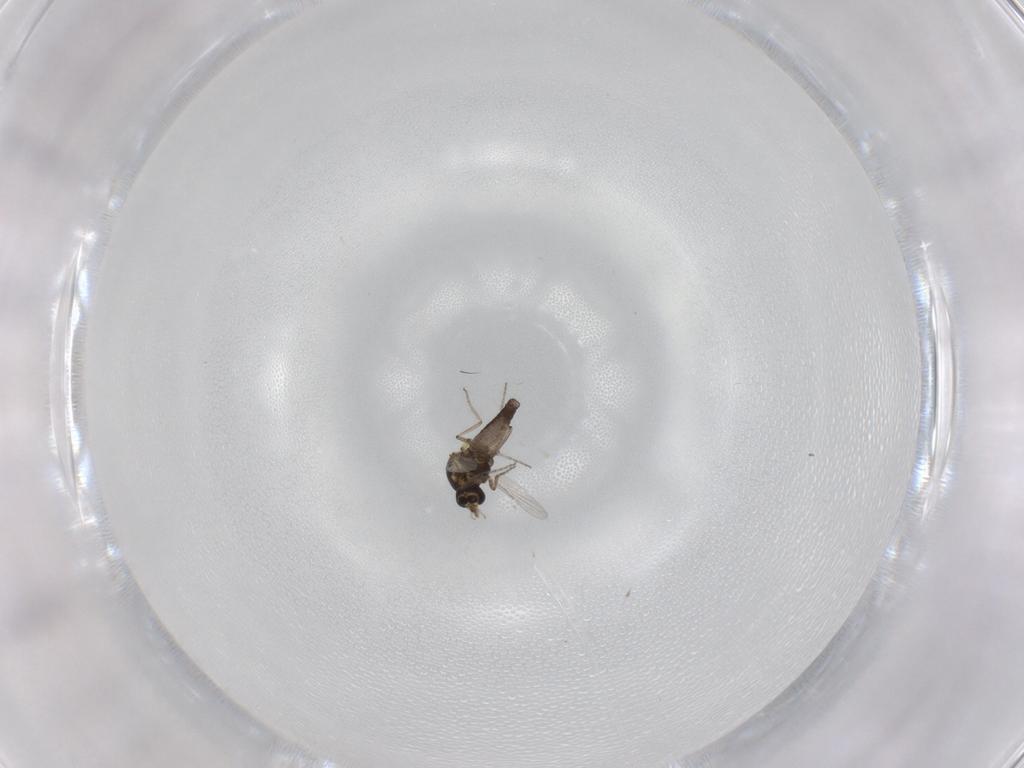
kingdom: Animalia
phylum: Arthropoda
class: Insecta
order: Diptera
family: Ceratopogonidae
